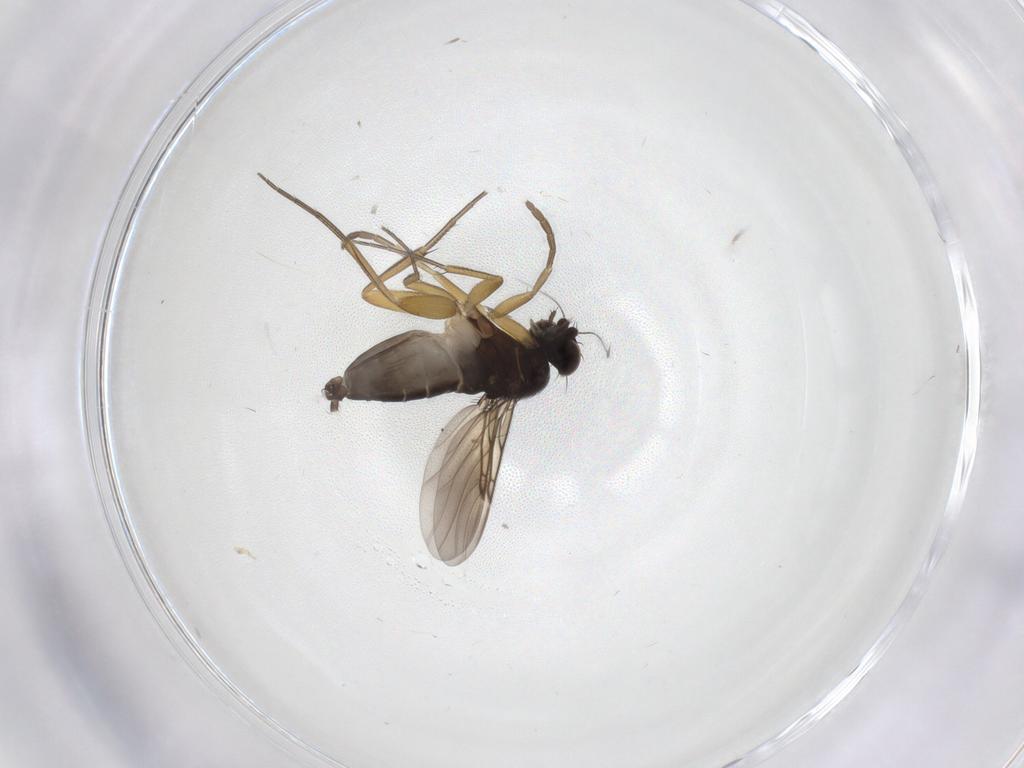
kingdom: Animalia
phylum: Arthropoda
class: Insecta
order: Diptera
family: Phoridae
